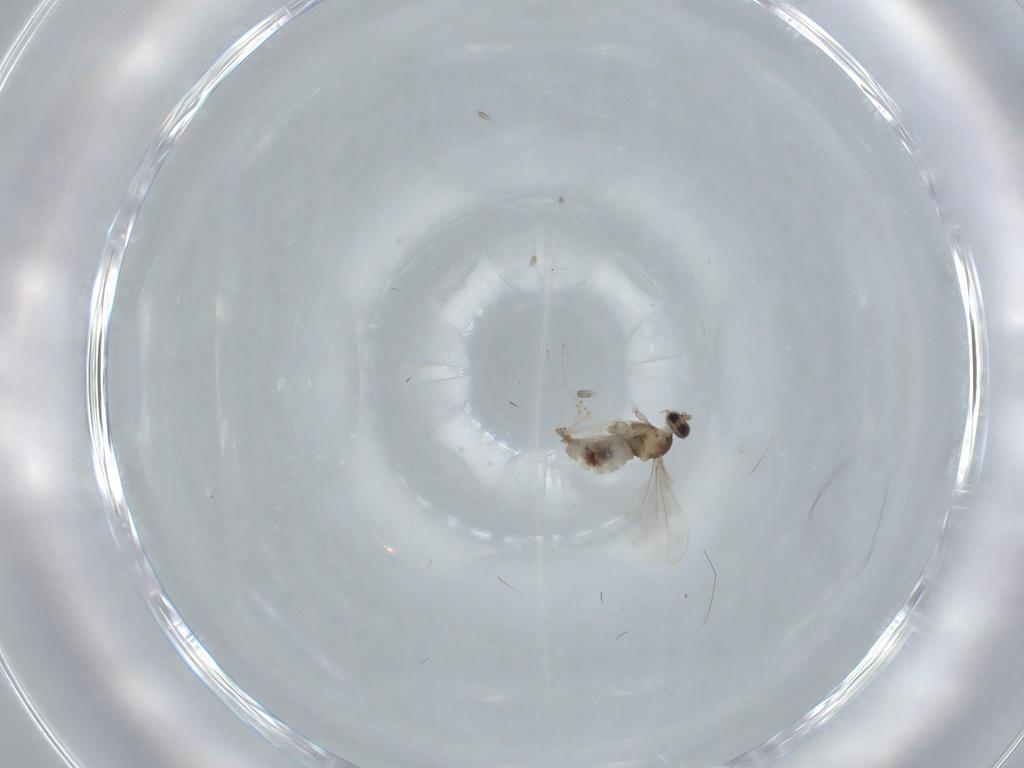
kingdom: Animalia
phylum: Arthropoda
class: Insecta
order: Diptera
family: Cecidomyiidae
